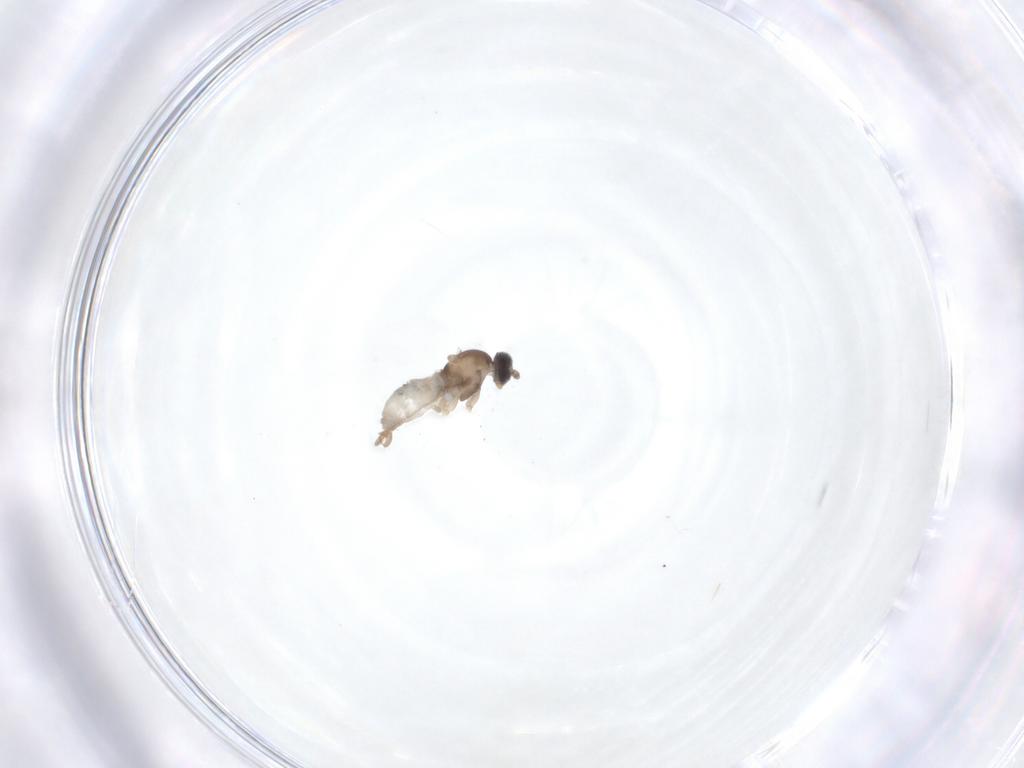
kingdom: Animalia
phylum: Arthropoda
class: Insecta
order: Diptera
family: Cecidomyiidae
